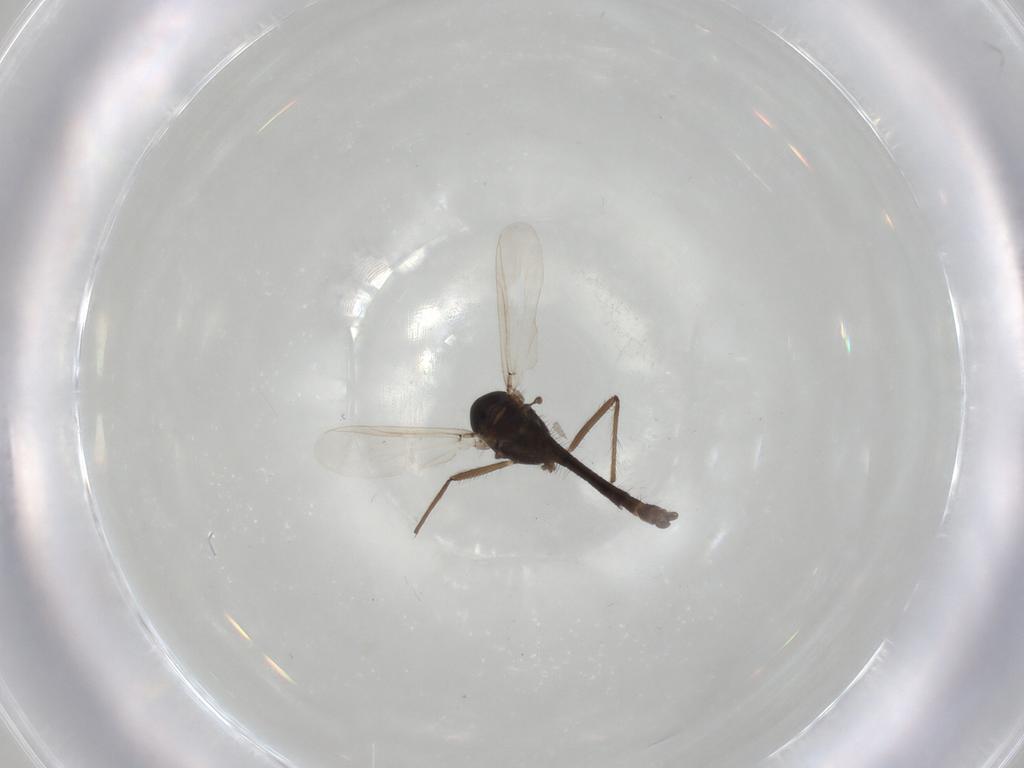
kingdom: Animalia
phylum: Arthropoda
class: Insecta
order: Diptera
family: Chironomidae
